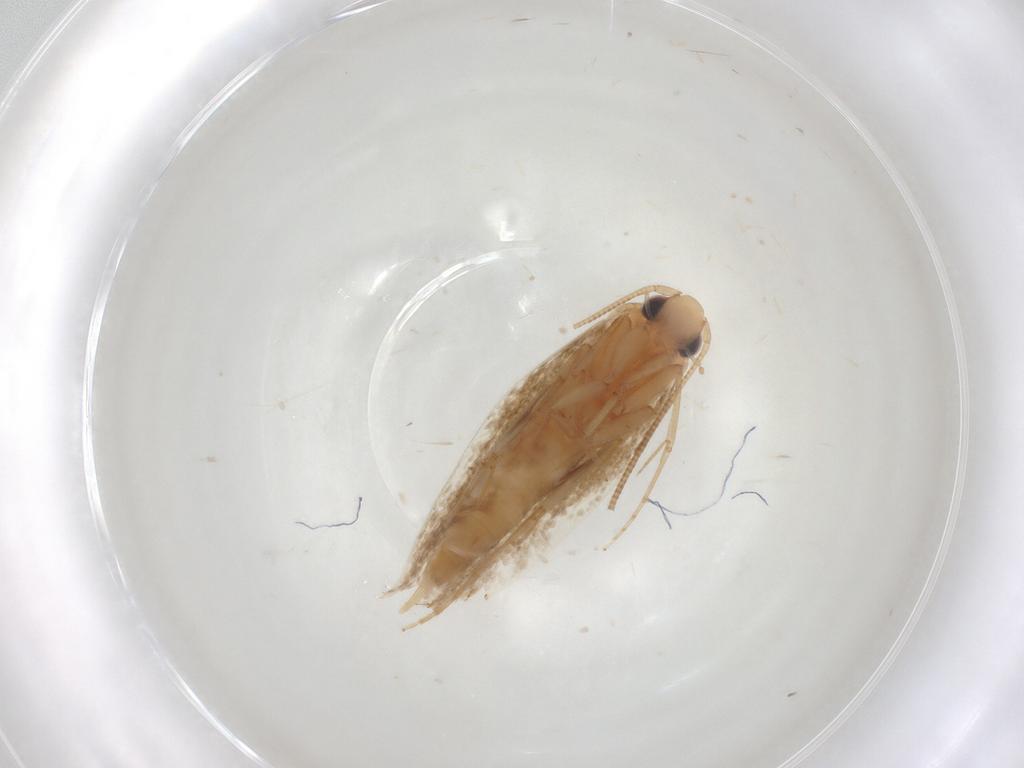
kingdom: Animalia
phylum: Arthropoda
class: Insecta
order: Lepidoptera
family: Tineidae
